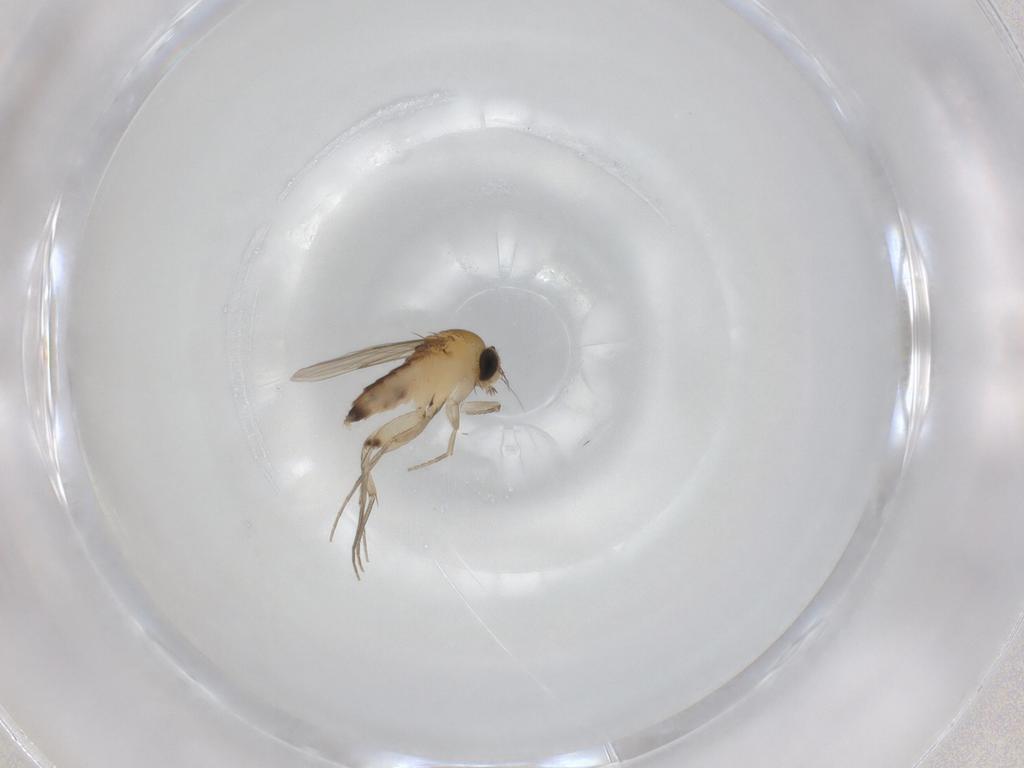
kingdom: Animalia
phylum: Arthropoda
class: Insecta
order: Diptera
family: Phoridae
